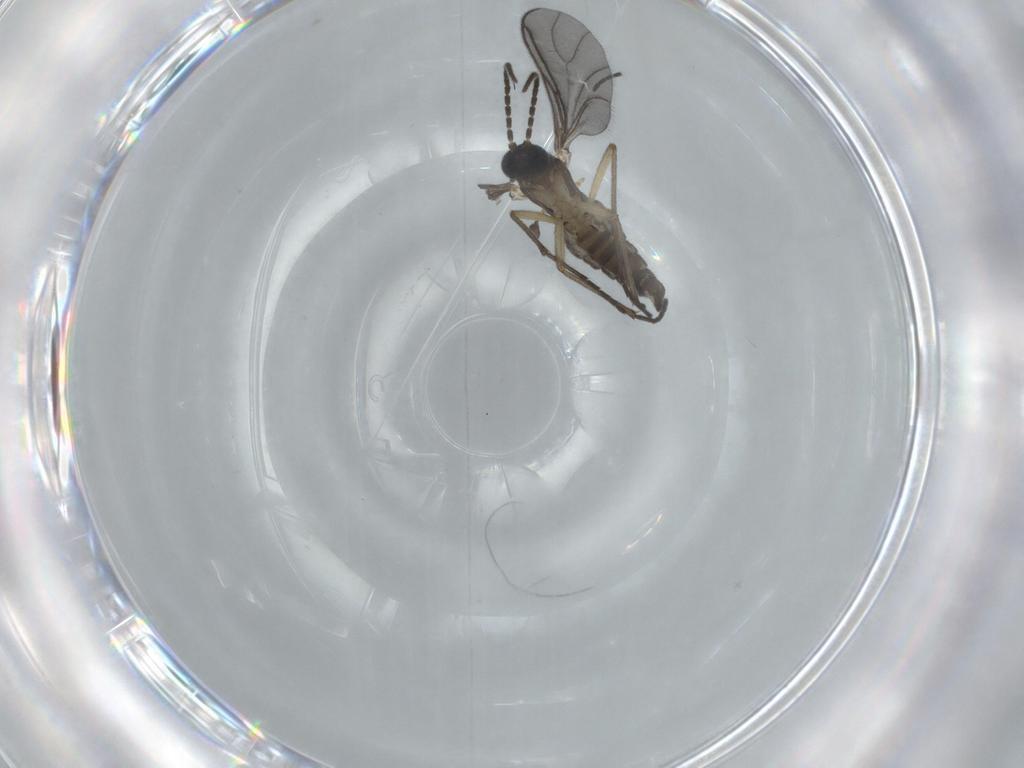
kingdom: Animalia
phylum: Arthropoda
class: Insecta
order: Diptera
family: Sciaridae
